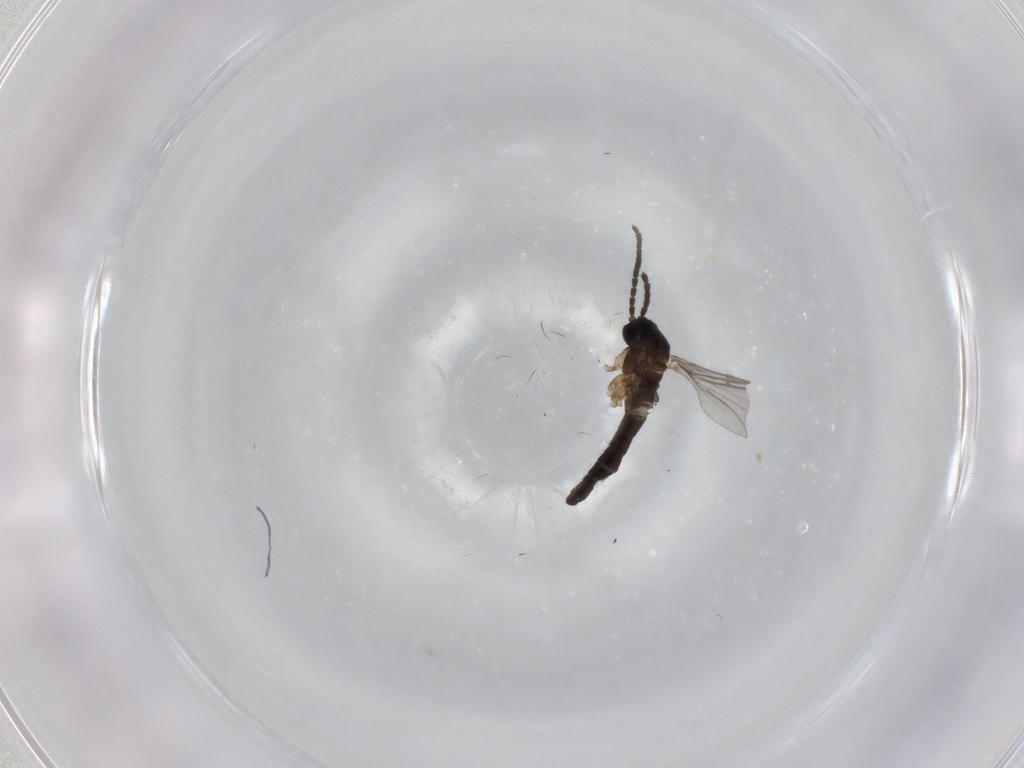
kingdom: Animalia
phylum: Arthropoda
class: Insecta
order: Diptera
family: Sciaridae
